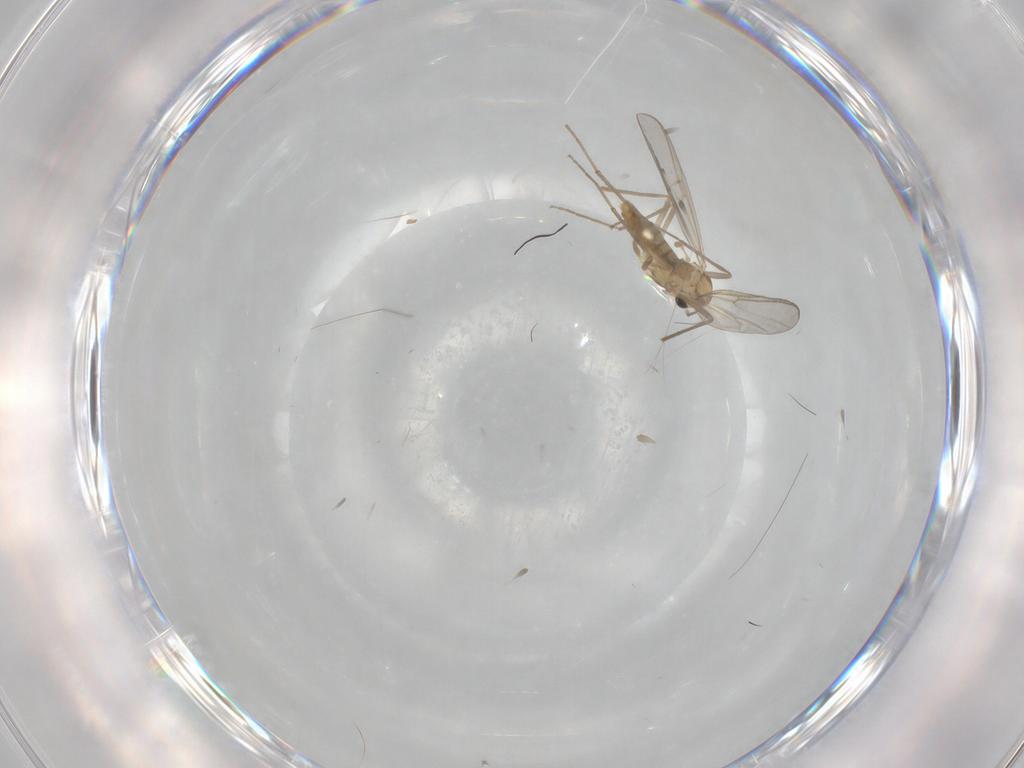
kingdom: Animalia
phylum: Arthropoda
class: Insecta
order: Diptera
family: Chironomidae
